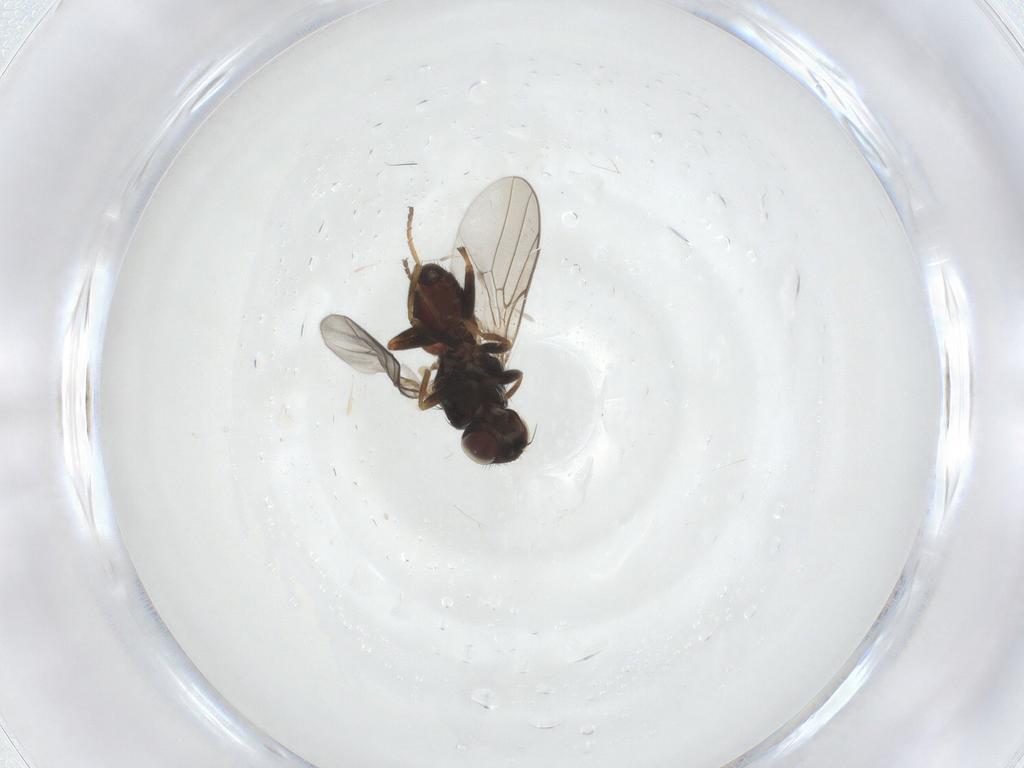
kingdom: Animalia
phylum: Arthropoda
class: Insecta
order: Diptera
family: Chloropidae
